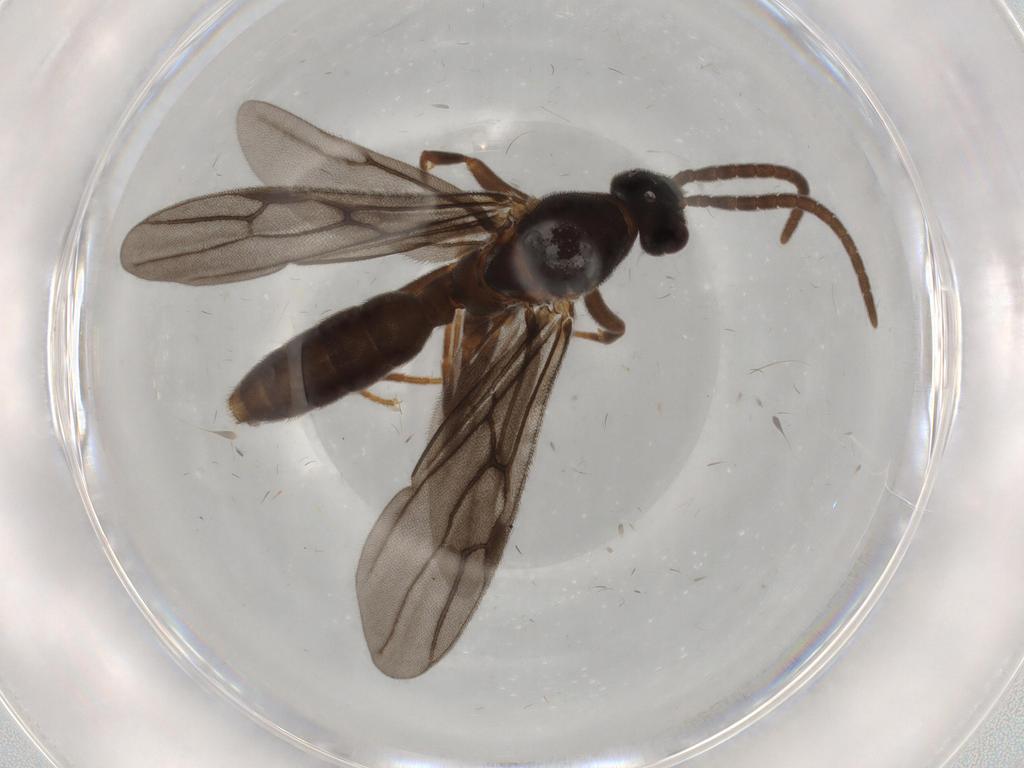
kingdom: Animalia
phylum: Arthropoda
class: Insecta
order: Hymenoptera
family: Formicidae
